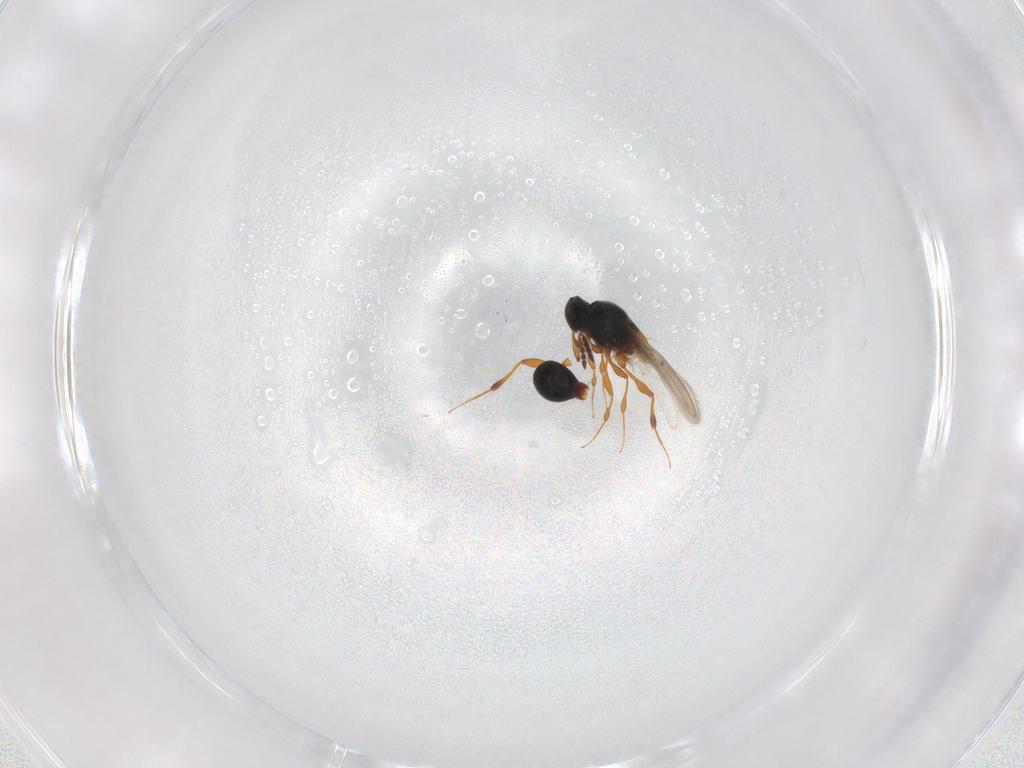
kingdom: Animalia
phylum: Arthropoda
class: Insecta
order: Hymenoptera
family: Platygastridae
